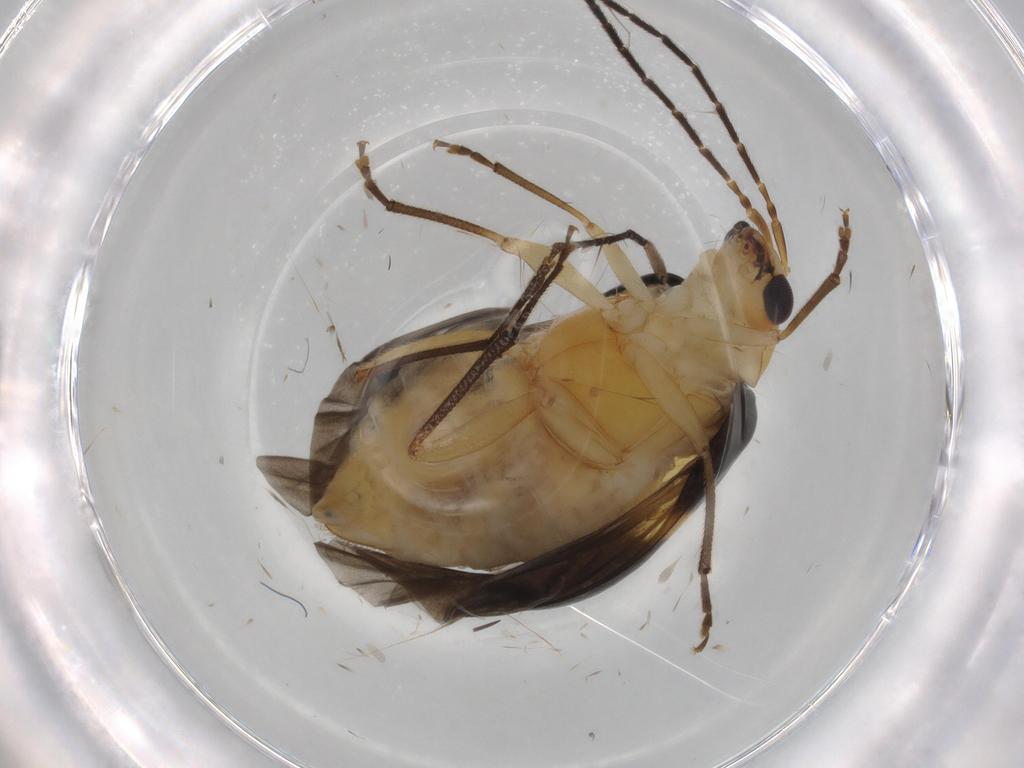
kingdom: Animalia
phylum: Arthropoda
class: Insecta
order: Coleoptera
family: Chrysomelidae
